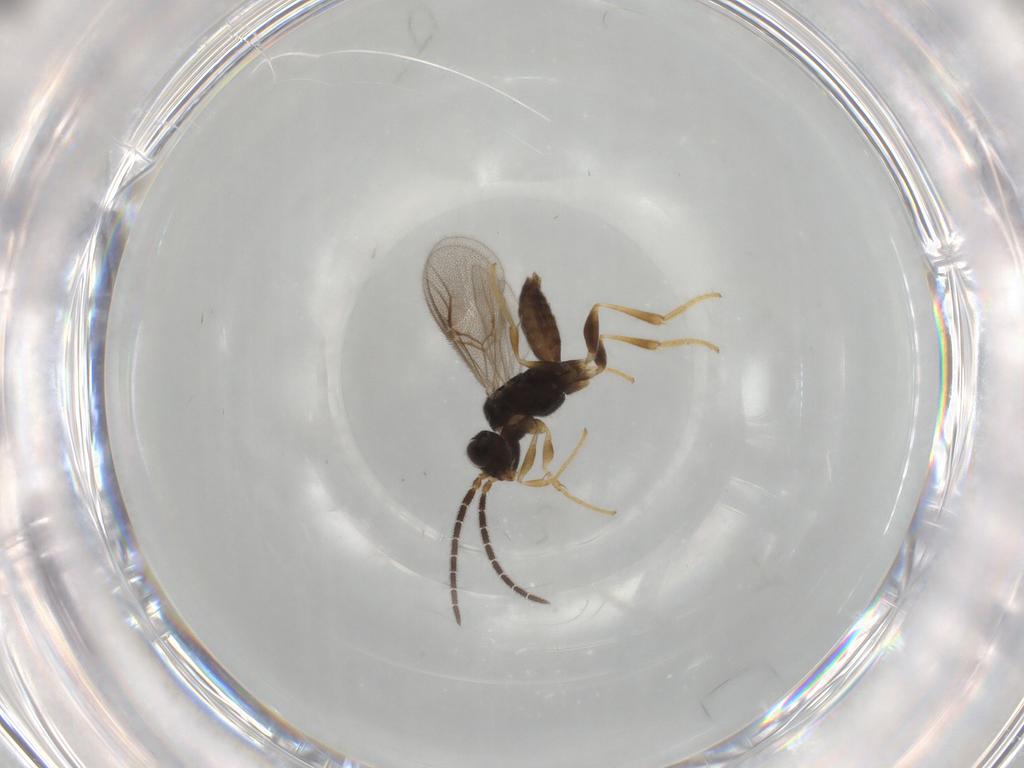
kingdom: Animalia
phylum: Arthropoda
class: Insecta
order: Hymenoptera
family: Dryinidae
